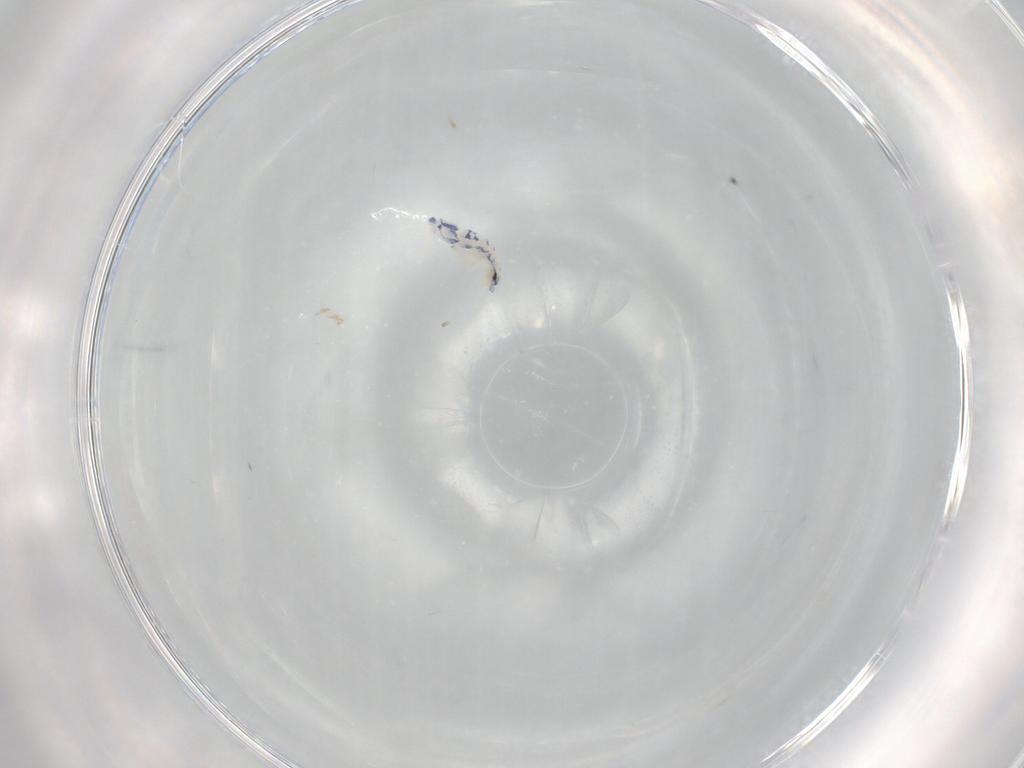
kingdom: Animalia
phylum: Arthropoda
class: Collembola
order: Entomobryomorpha
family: Entomobryidae
